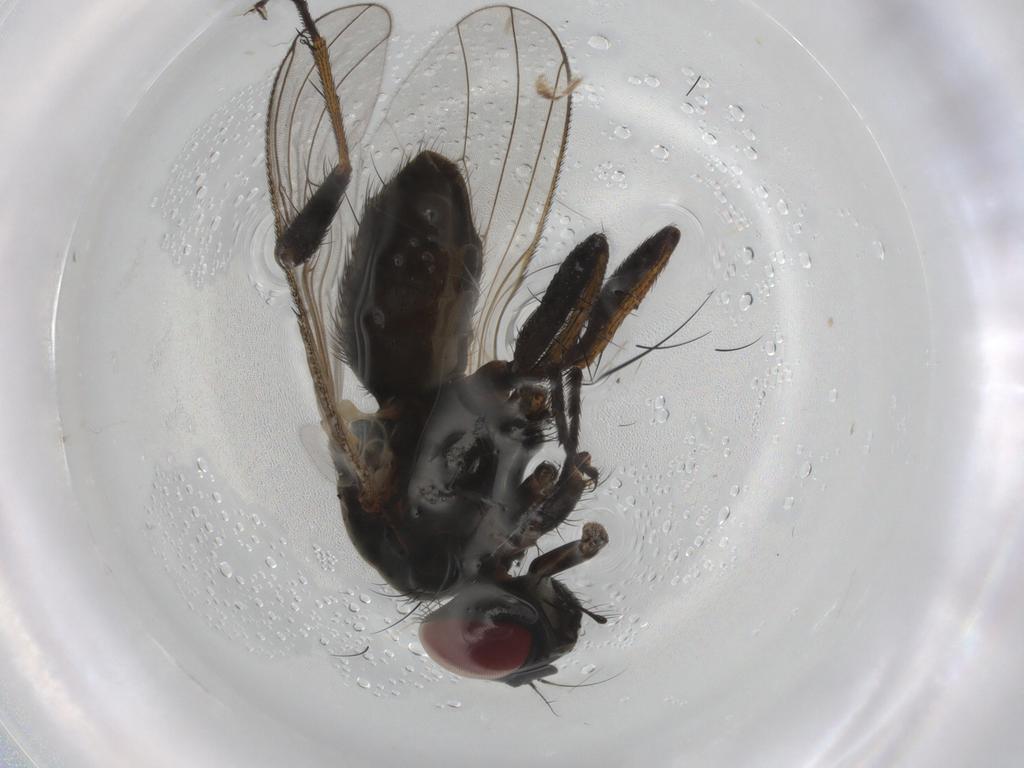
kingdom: Animalia
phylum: Arthropoda
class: Insecta
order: Diptera
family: Muscidae
